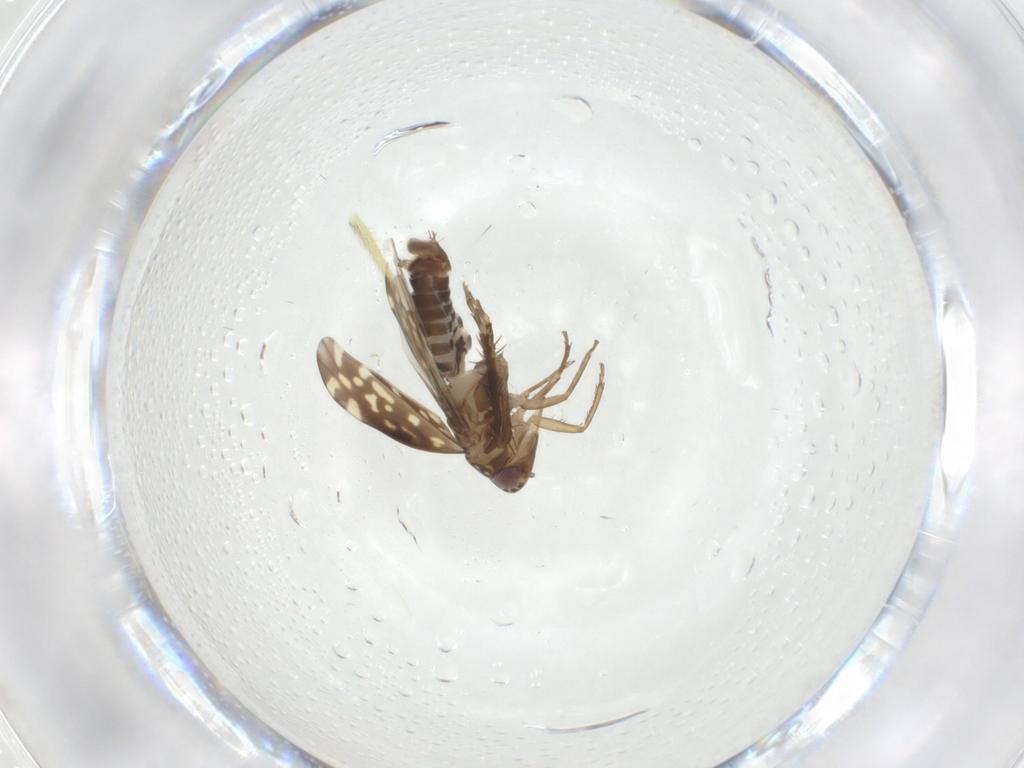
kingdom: Animalia
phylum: Arthropoda
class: Insecta
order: Hemiptera
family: Cicadellidae
